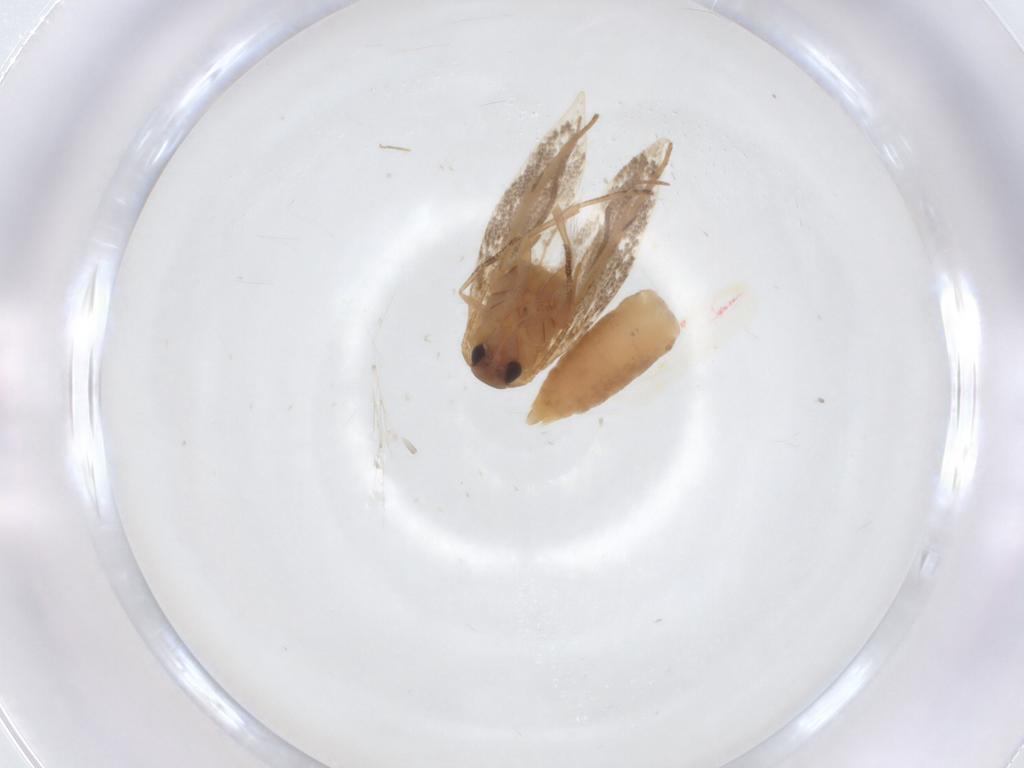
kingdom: Animalia
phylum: Arthropoda
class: Insecta
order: Lepidoptera
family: Elachistidae
